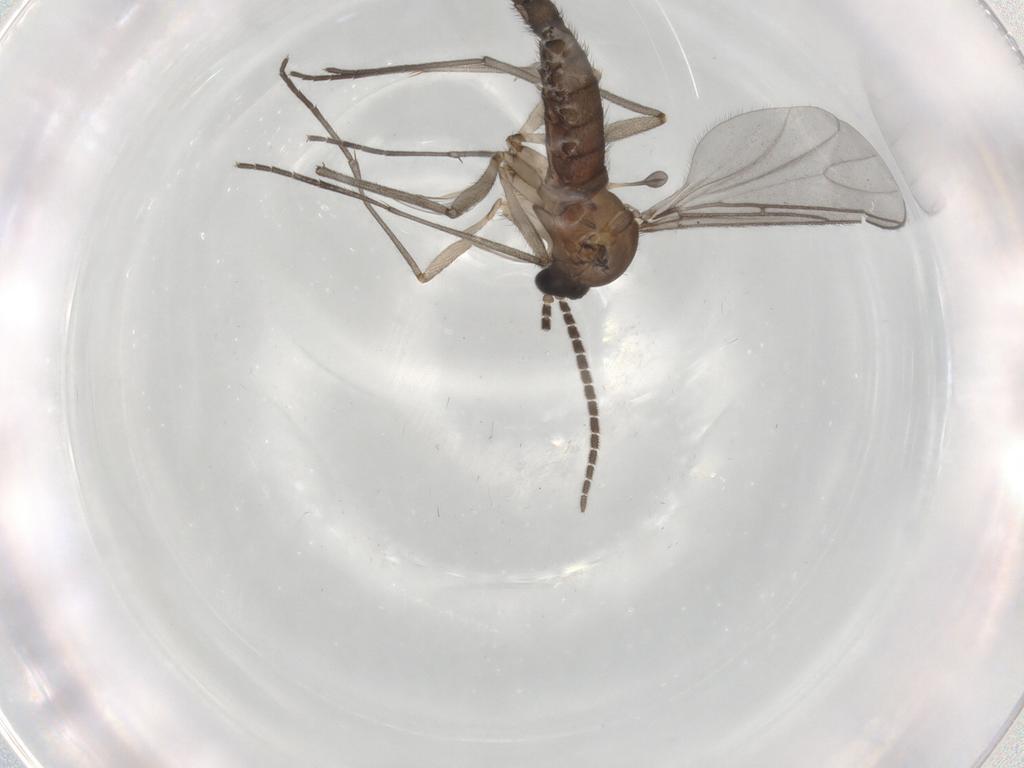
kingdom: Animalia
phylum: Arthropoda
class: Insecta
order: Diptera
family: Sciaridae
